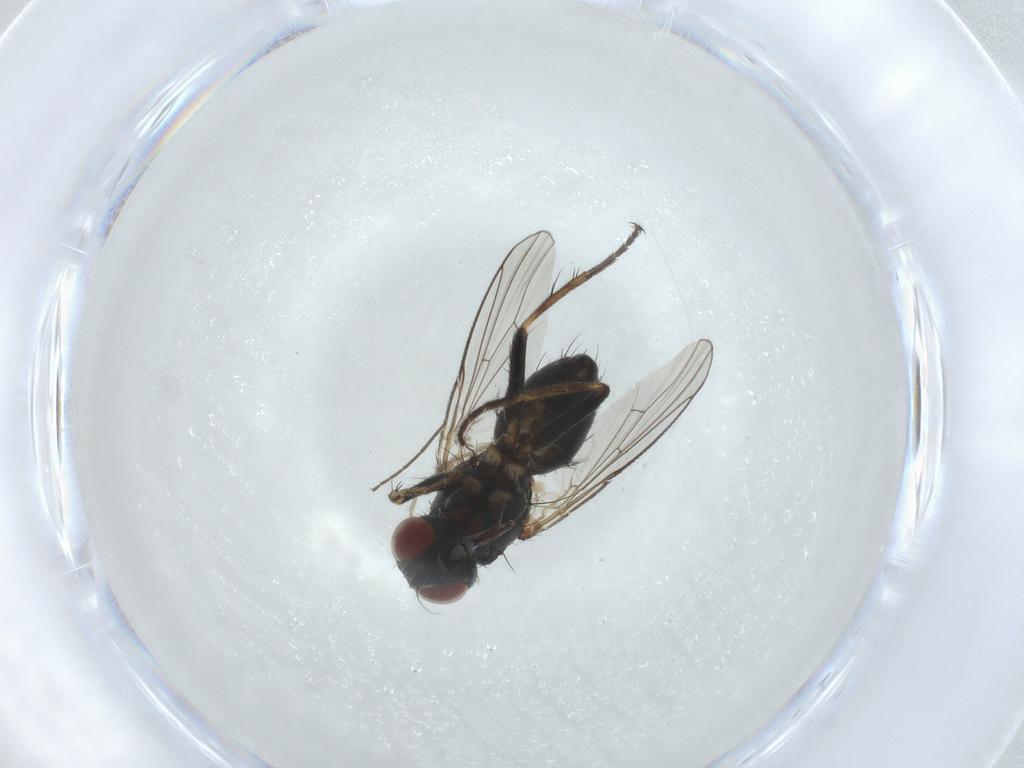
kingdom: Animalia
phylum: Arthropoda
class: Insecta
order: Diptera
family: Muscidae
